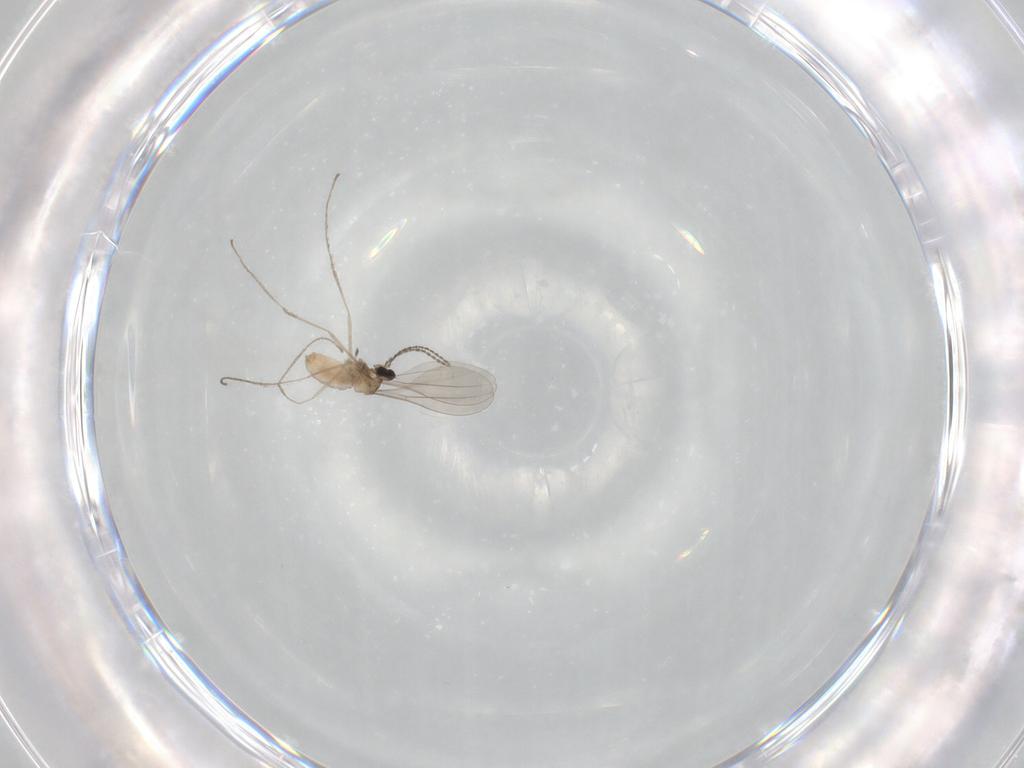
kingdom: Animalia
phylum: Arthropoda
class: Insecta
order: Diptera
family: Cecidomyiidae
